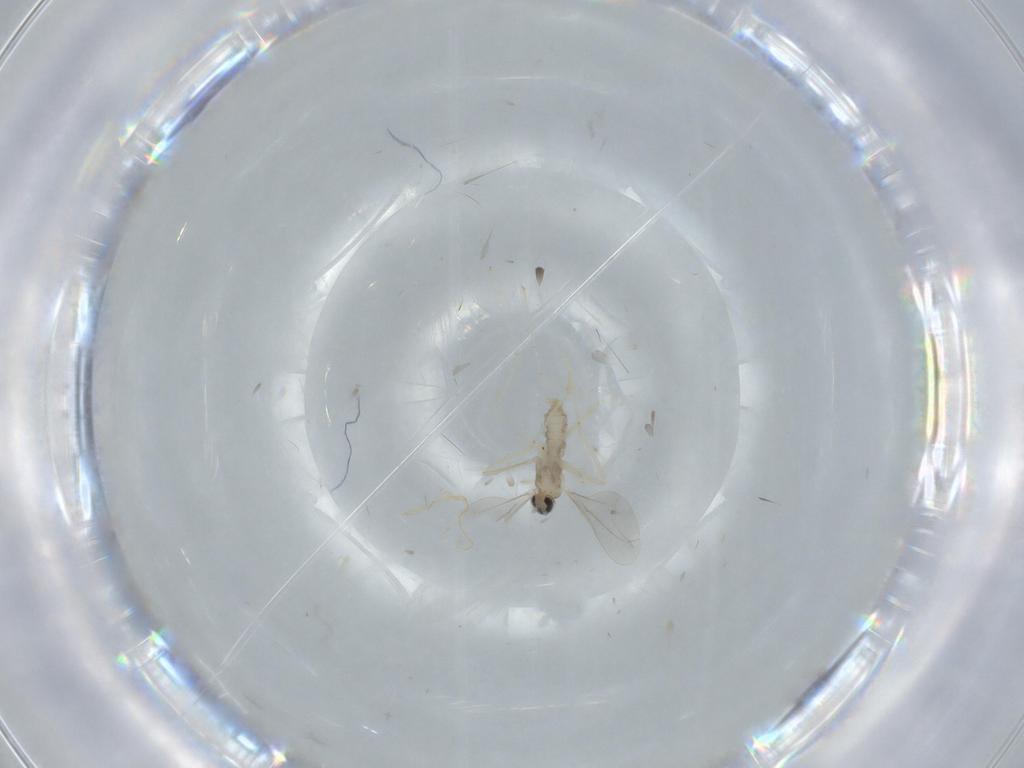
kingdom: Animalia
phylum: Arthropoda
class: Insecta
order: Diptera
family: Cecidomyiidae
